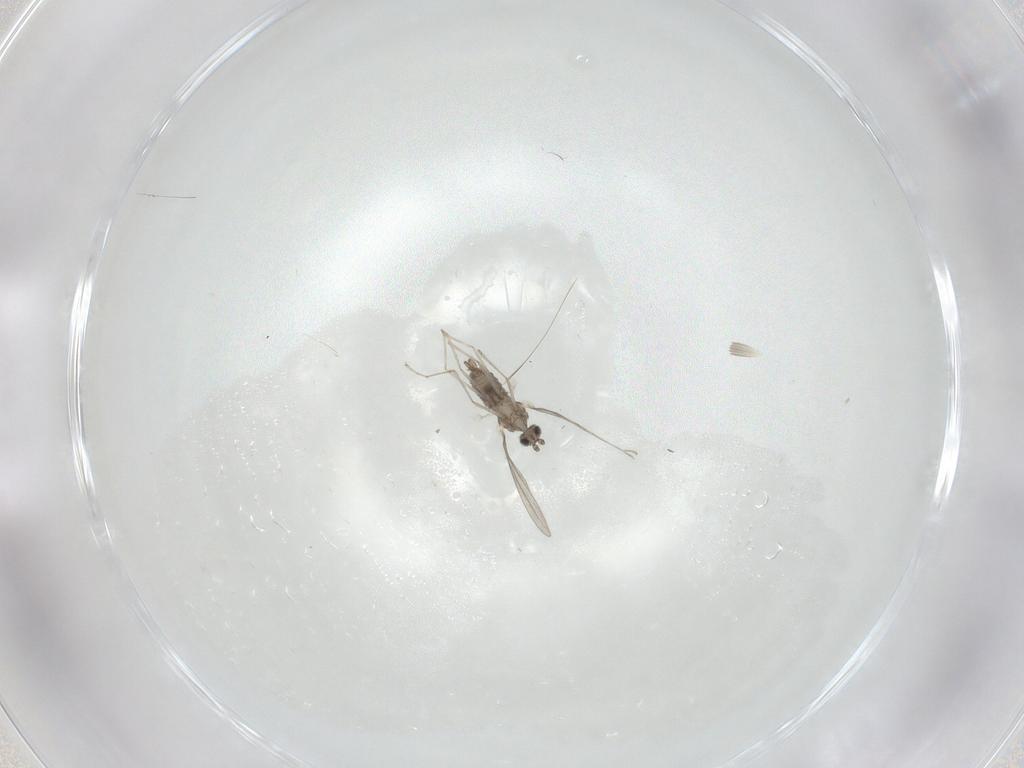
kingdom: Animalia
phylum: Arthropoda
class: Insecta
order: Diptera
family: Cecidomyiidae
